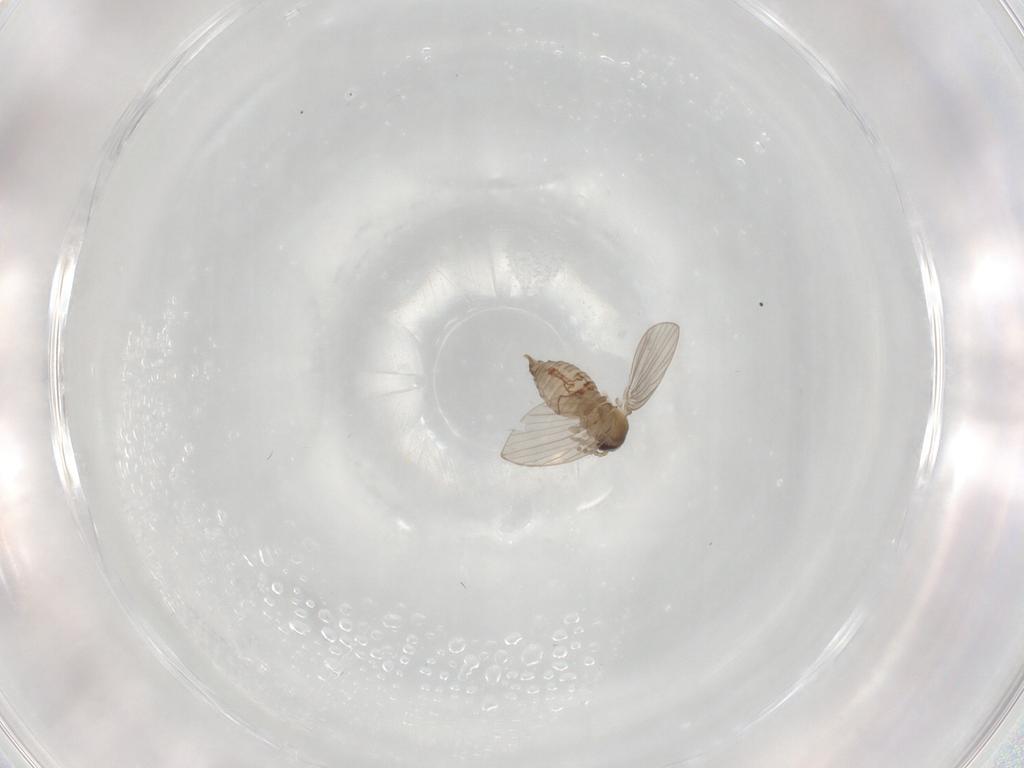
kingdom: Animalia
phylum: Arthropoda
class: Insecta
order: Diptera
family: Psychodidae
